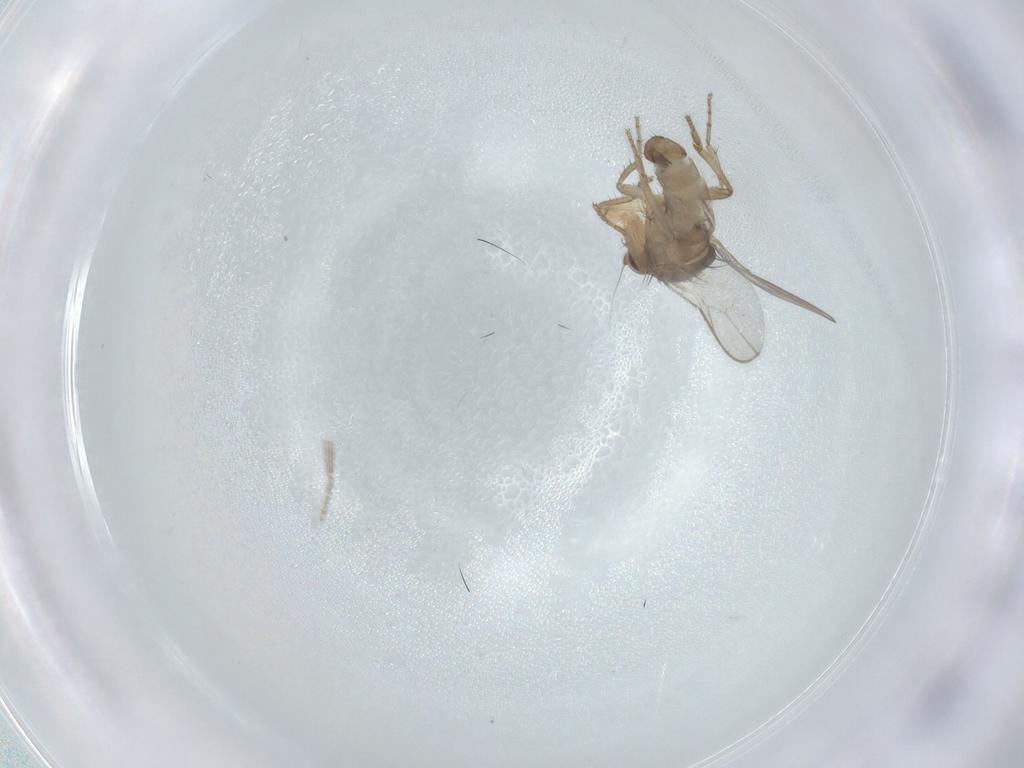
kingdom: Animalia
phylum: Arthropoda
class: Insecta
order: Diptera
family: Cecidomyiidae
